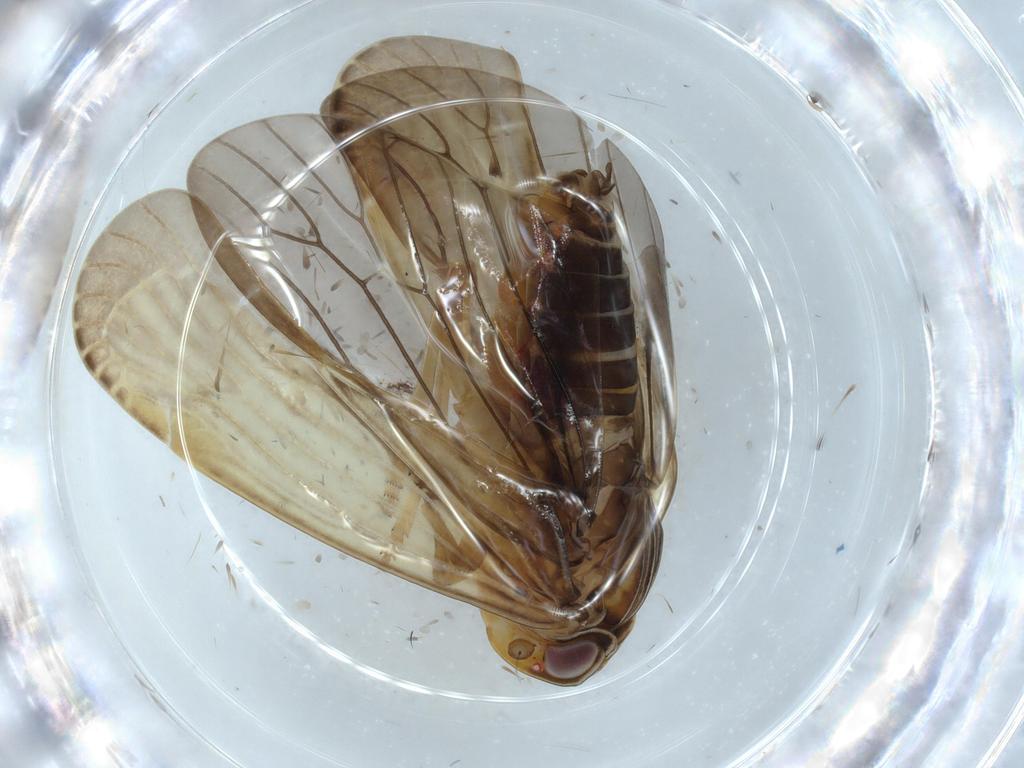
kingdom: Animalia
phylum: Arthropoda
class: Insecta
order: Hemiptera
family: Achilidae
